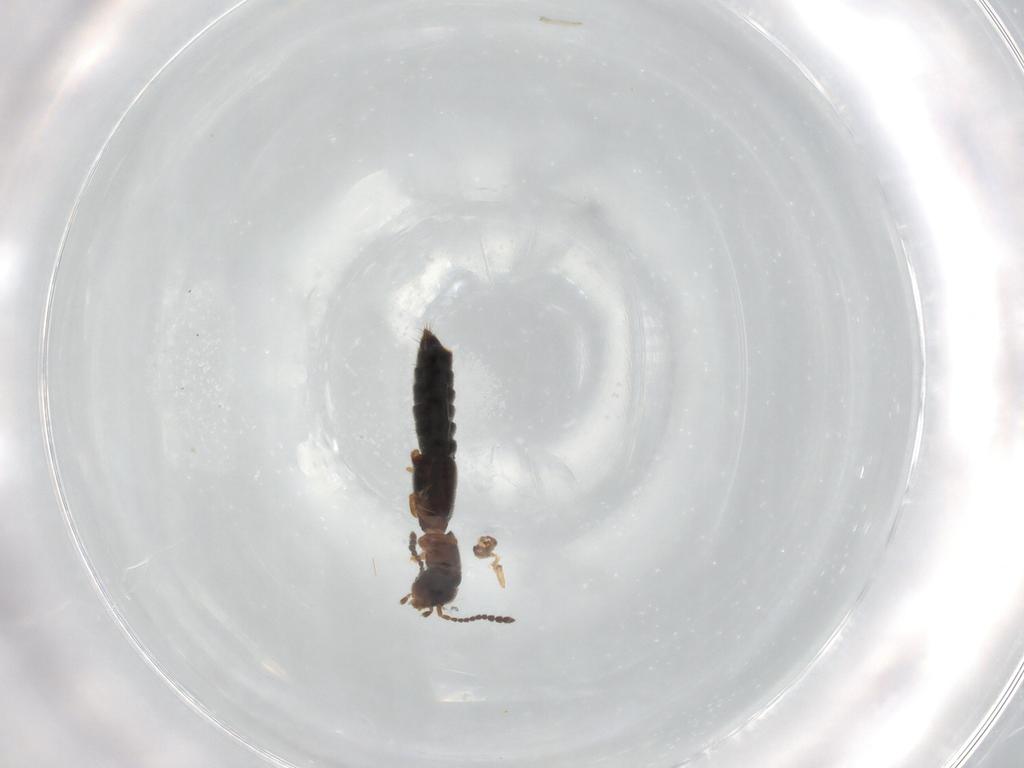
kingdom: Animalia
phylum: Arthropoda
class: Insecta
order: Coleoptera
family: Staphylinidae
